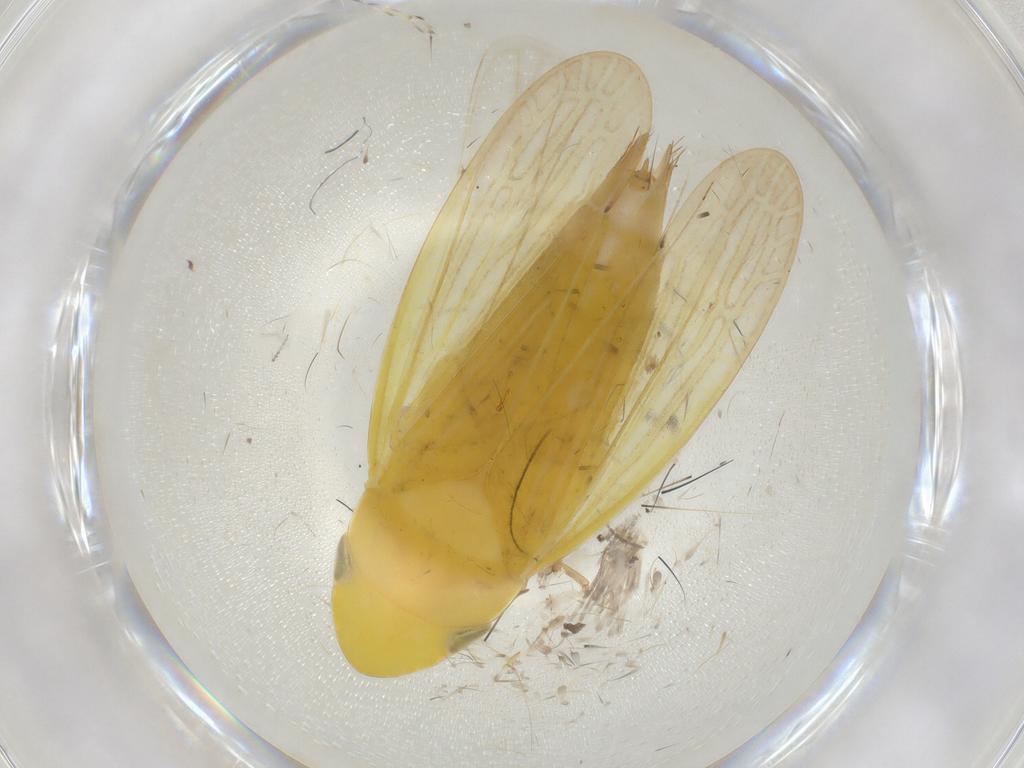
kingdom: Animalia
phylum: Arthropoda
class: Insecta
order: Hemiptera
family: Cicadellidae
